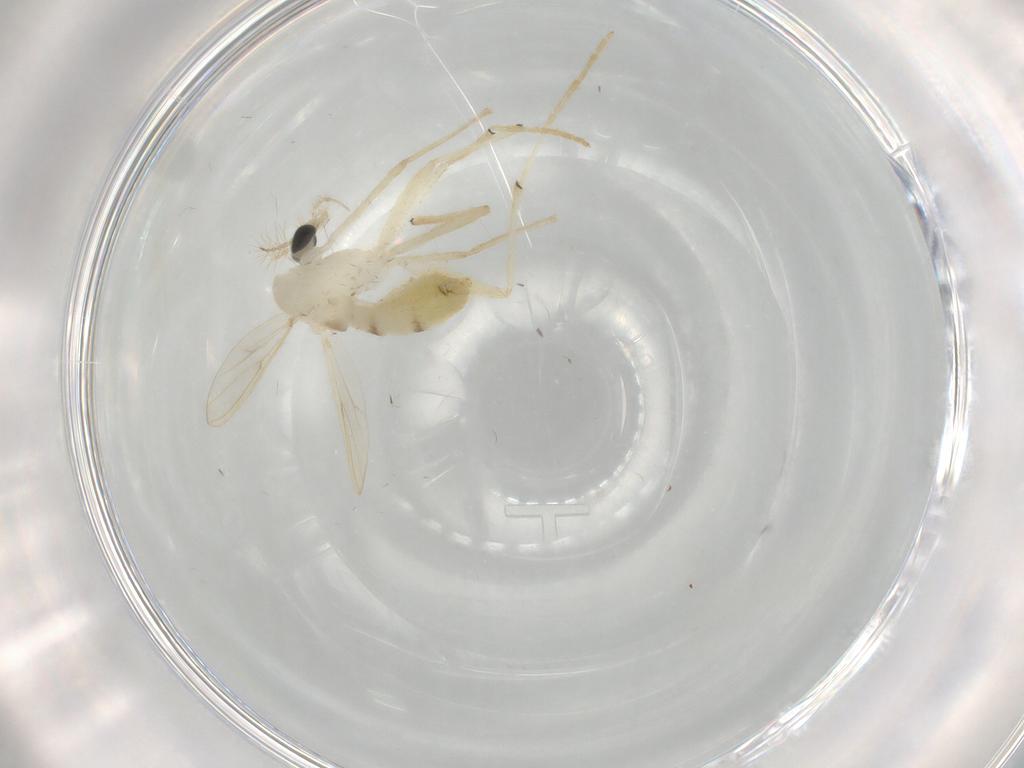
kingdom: Animalia
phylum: Arthropoda
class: Insecta
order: Diptera
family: Chironomidae
